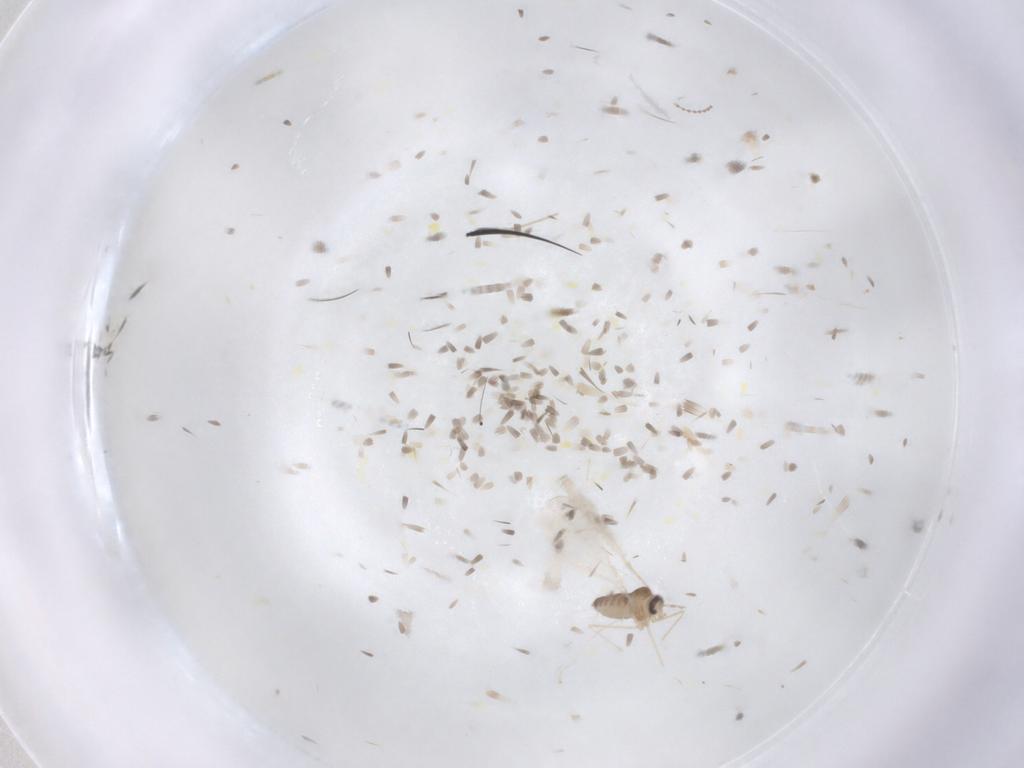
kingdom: Animalia
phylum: Arthropoda
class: Insecta
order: Diptera
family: Cecidomyiidae
